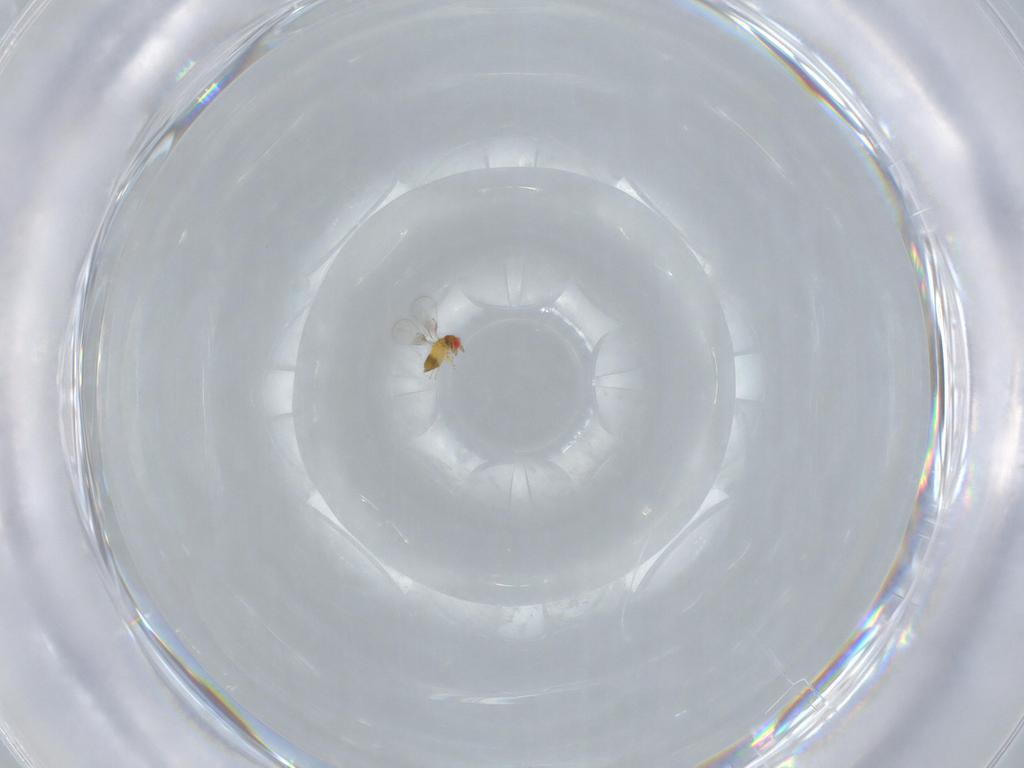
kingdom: Animalia
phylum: Arthropoda
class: Insecta
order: Hymenoptera
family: Trichogrammatidae
